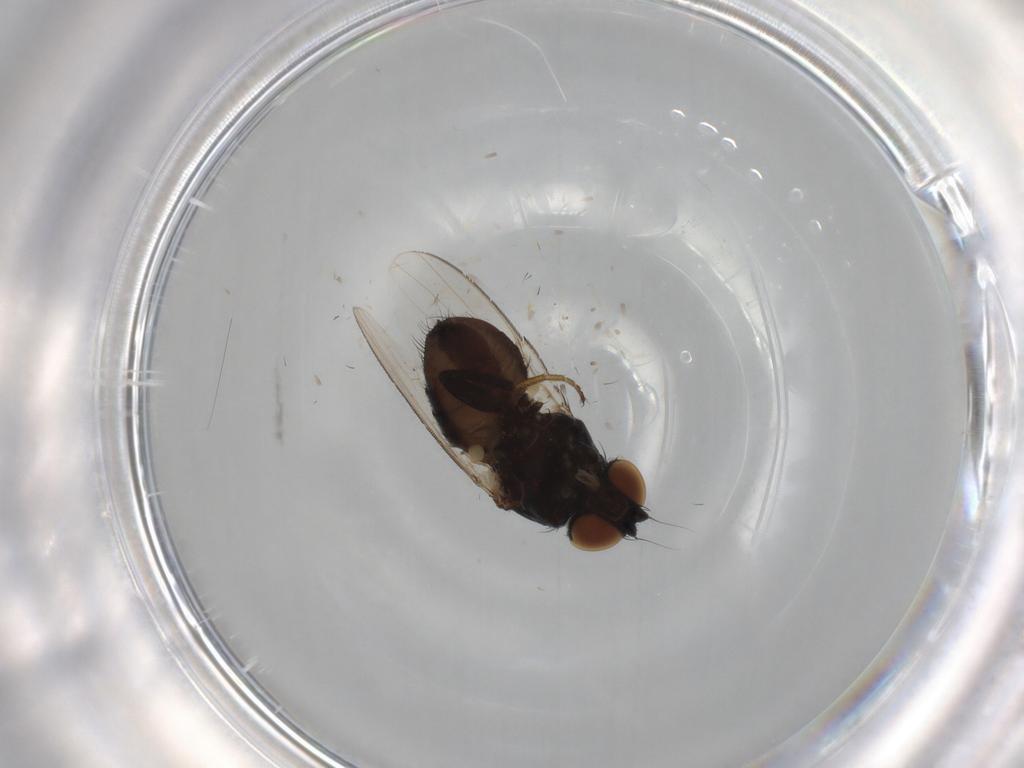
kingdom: Animalia
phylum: Arthropoda
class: Insecta
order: Diptera
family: Milichiidae
